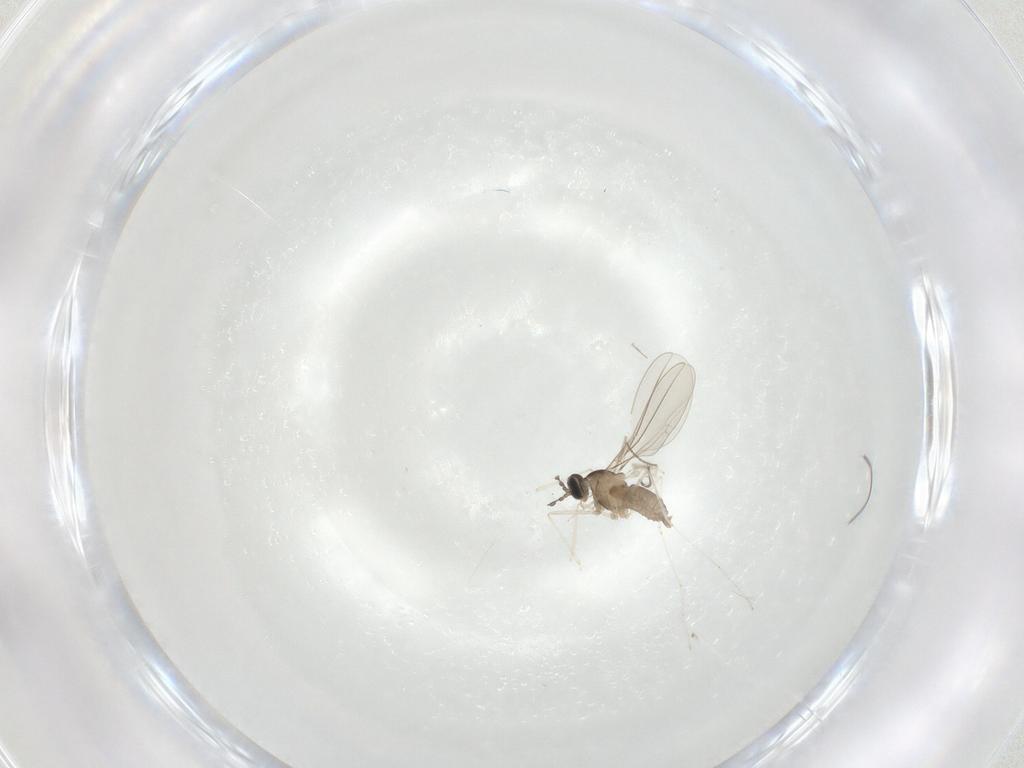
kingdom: Animalia
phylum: Arthropoda
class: Insecta
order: Diptera
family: Cecidomyiidae
